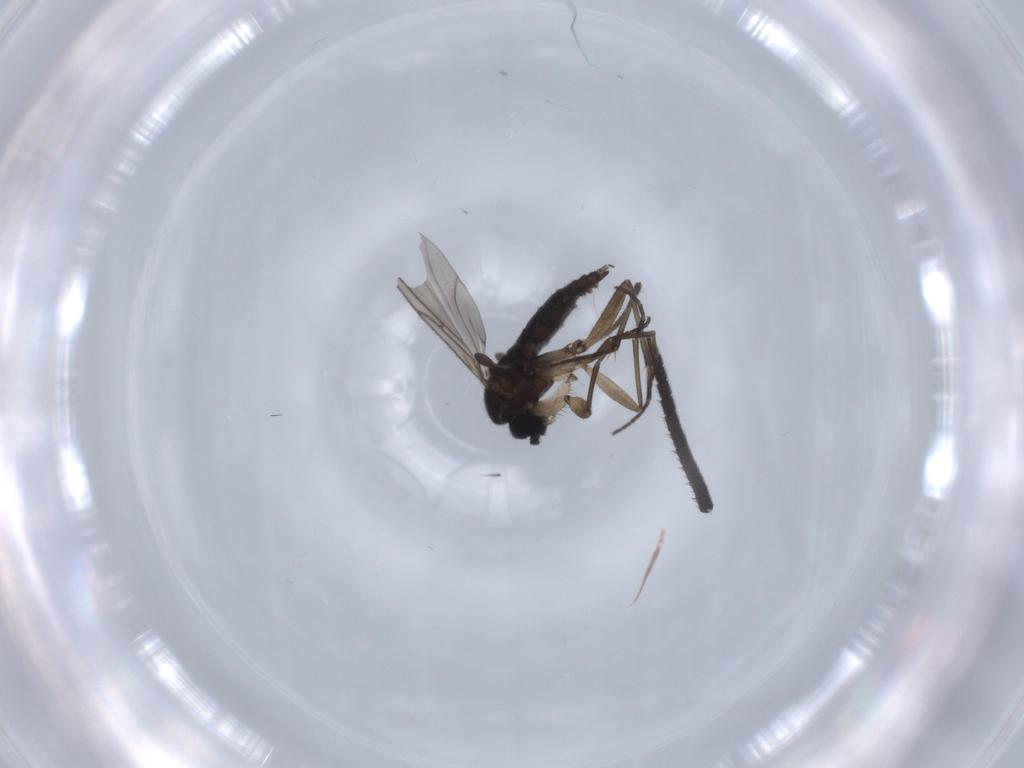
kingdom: Animalia
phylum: Arthropoda
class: Insecta
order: Diptera
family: Sciaridae
